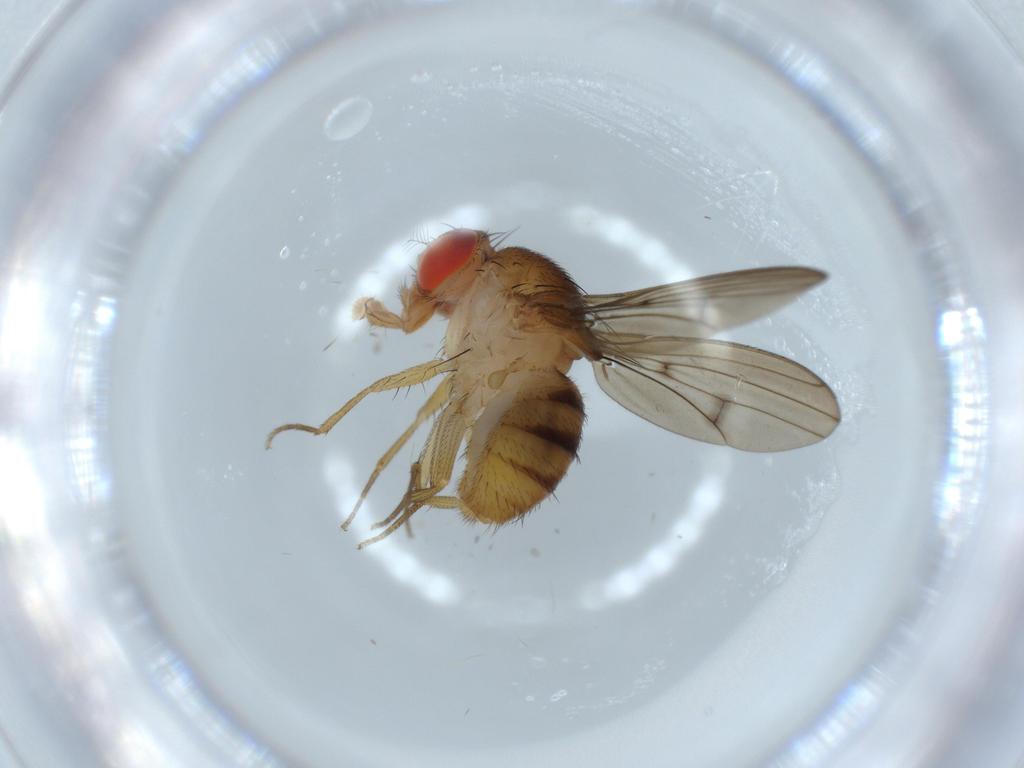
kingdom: Animalia
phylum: Arthropoda
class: Insecta
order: Diptera
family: Drosophilidae
